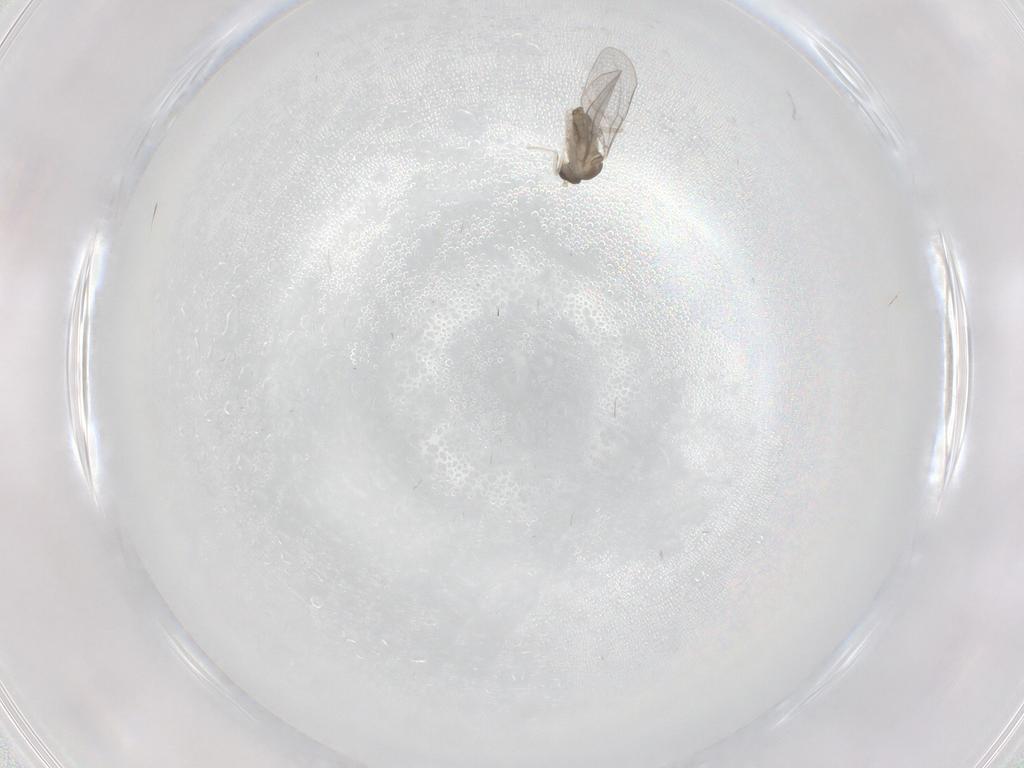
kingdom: Animalia
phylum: Arthropoda
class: Insecta
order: Diptera
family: Cecidomyiidae
